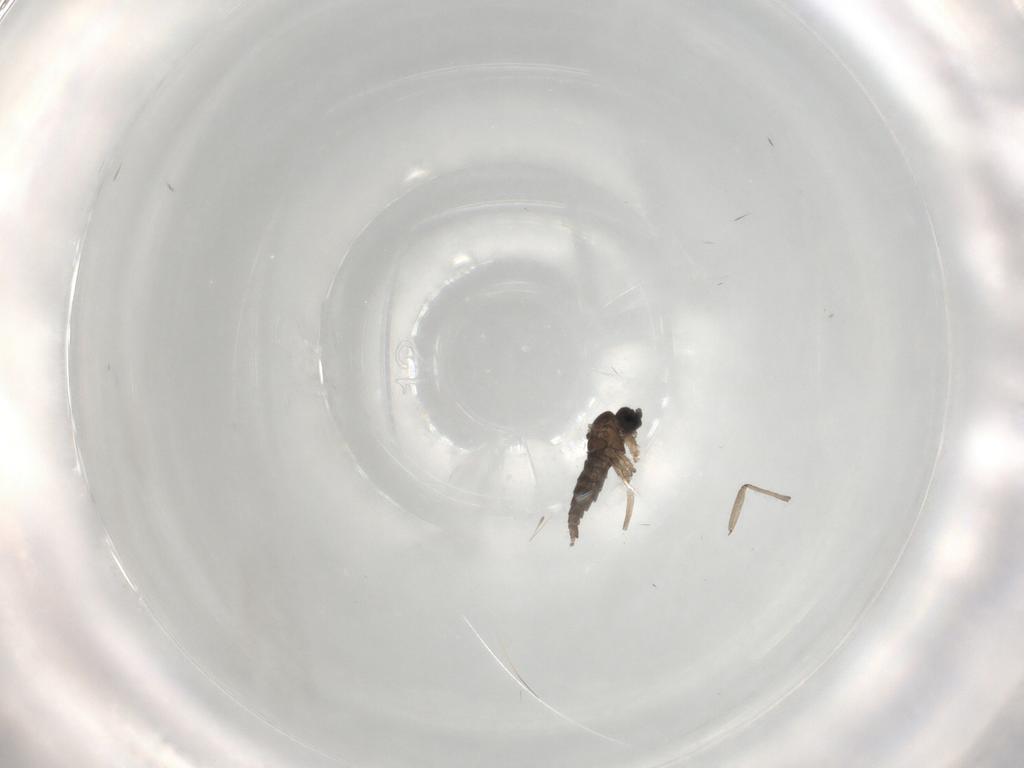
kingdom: Animalia
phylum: Arthropoda
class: Insecta
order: Diptera
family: Sciaridae
